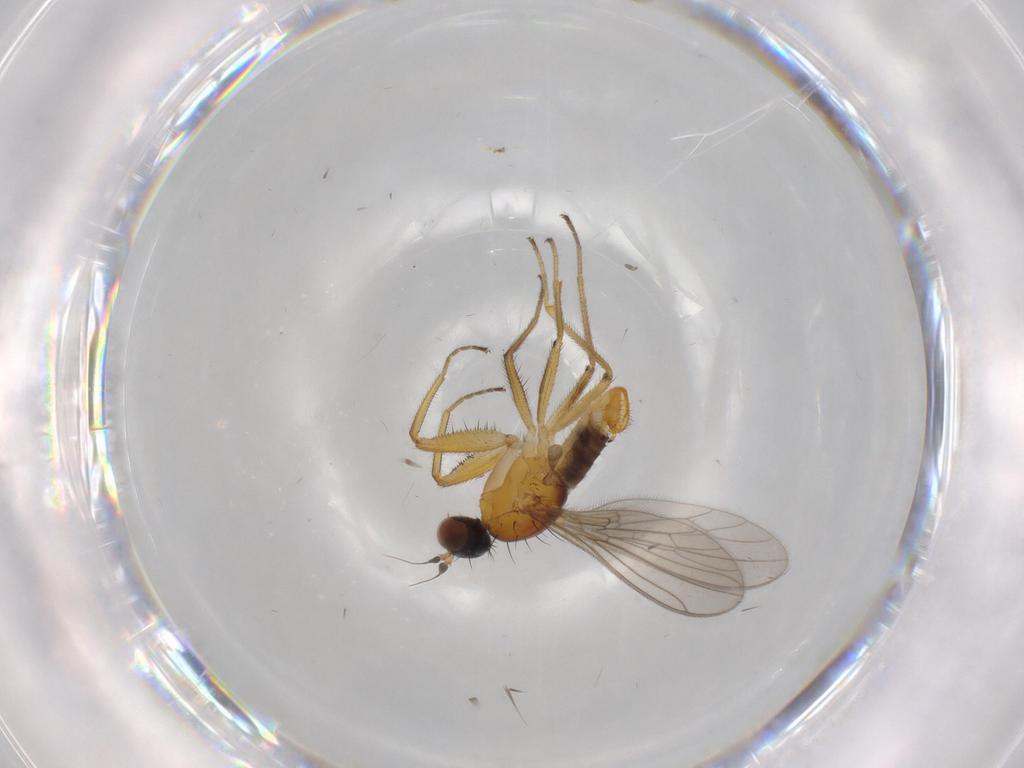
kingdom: Animalia
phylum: Arthropoda
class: Insecta
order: Diptera
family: Empididae
